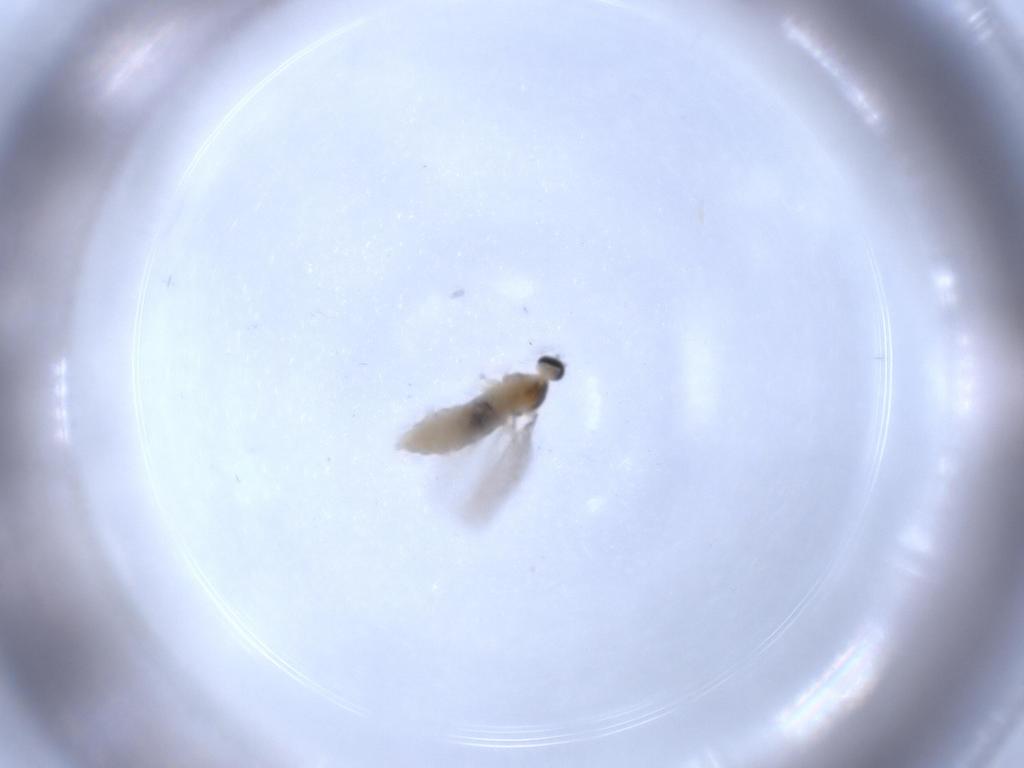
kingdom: Animalia
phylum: Arthropoda
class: Insecta
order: Diptera
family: Cecidomyiidae
